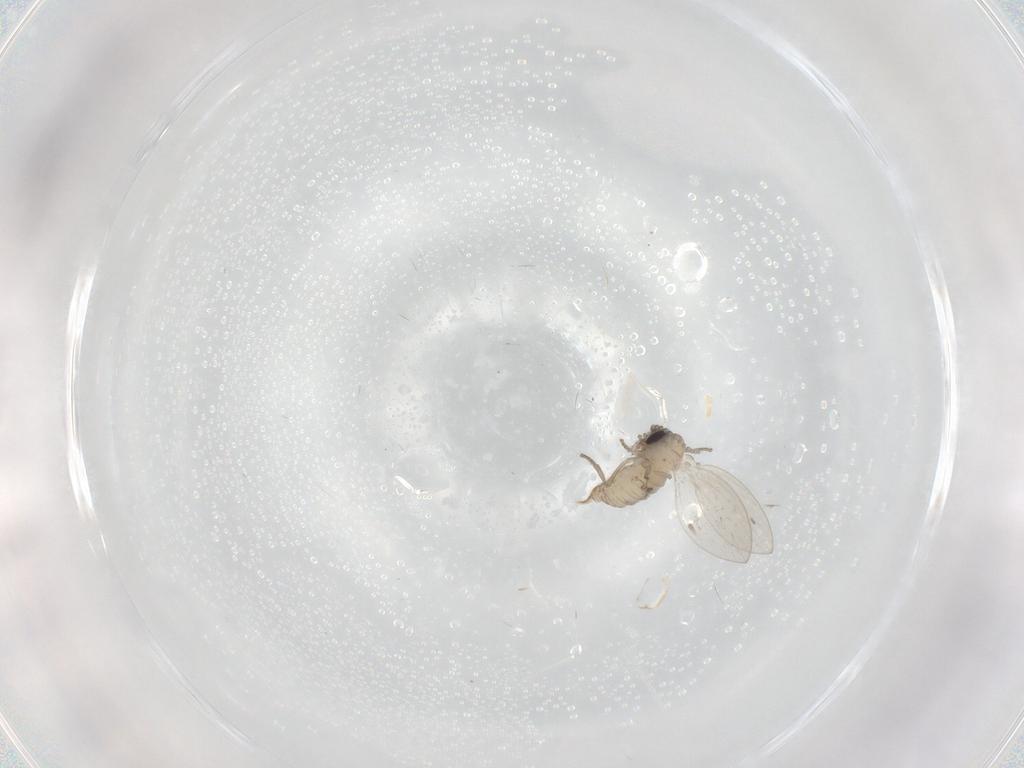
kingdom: Animalia
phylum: Arthropoda
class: Insecta
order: Diptera
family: Psychodidae
